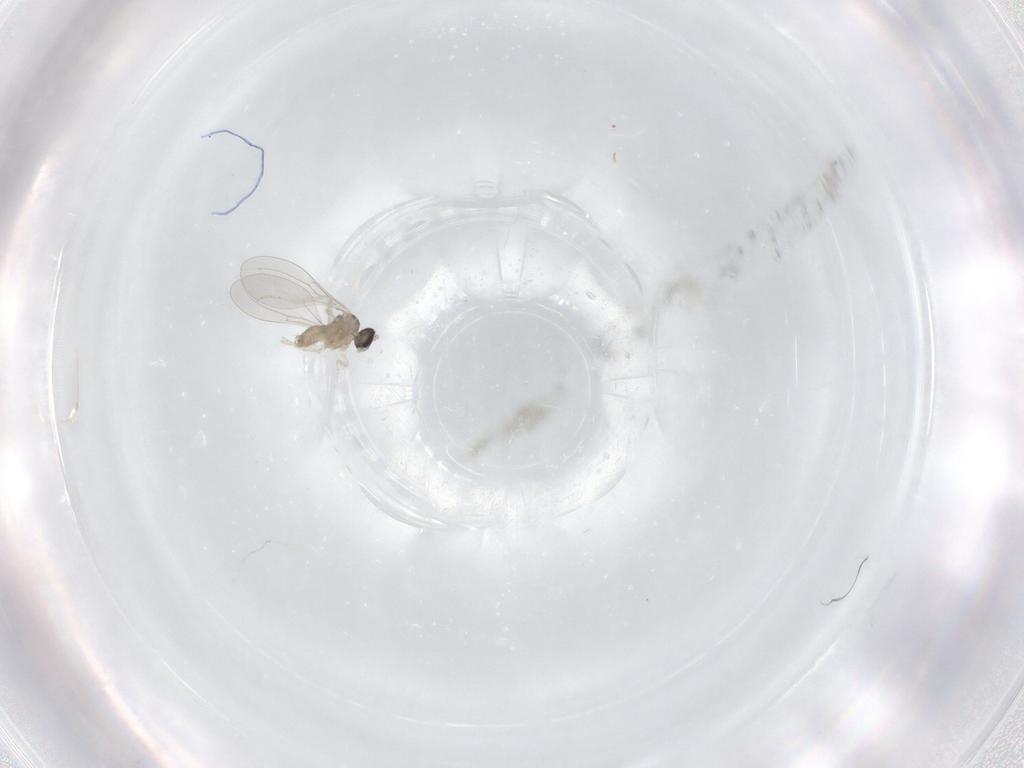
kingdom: Animalia
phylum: Arthropoda
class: Insecta
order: Diptera
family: Cecidomyiidae
